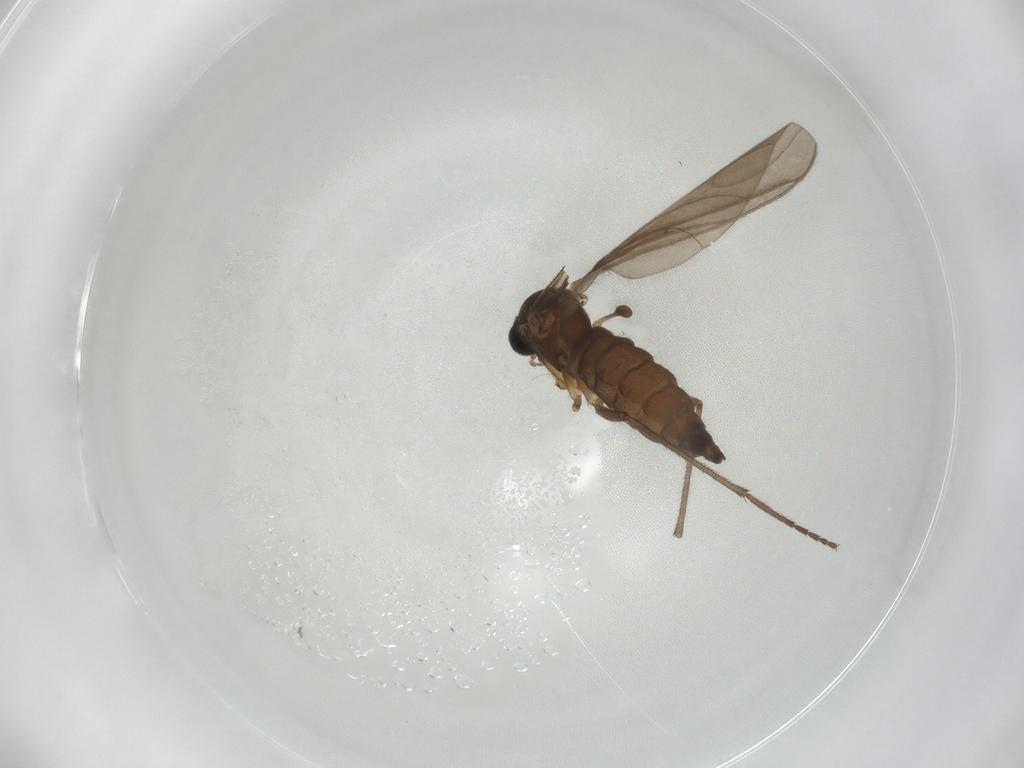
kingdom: Animalia
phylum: Arthropoda
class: Insecta
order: Diptera
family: Sciaridae
